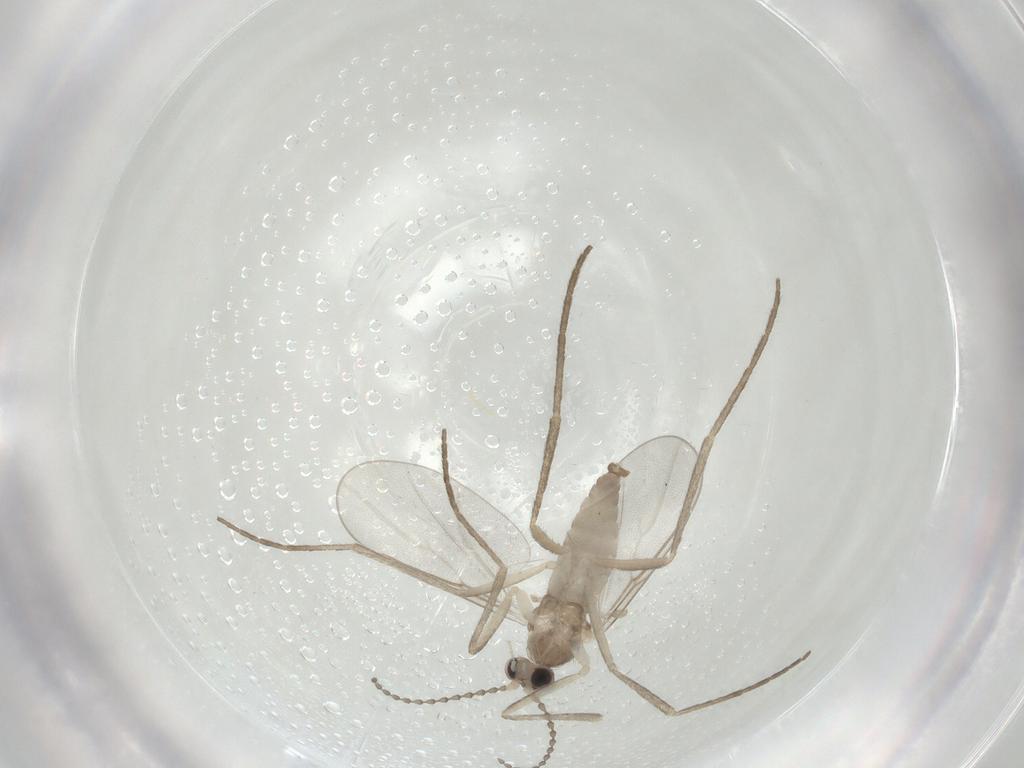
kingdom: Animalia
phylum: Arthropoda
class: Insecta
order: Diptera
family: Cecidomyiidae
